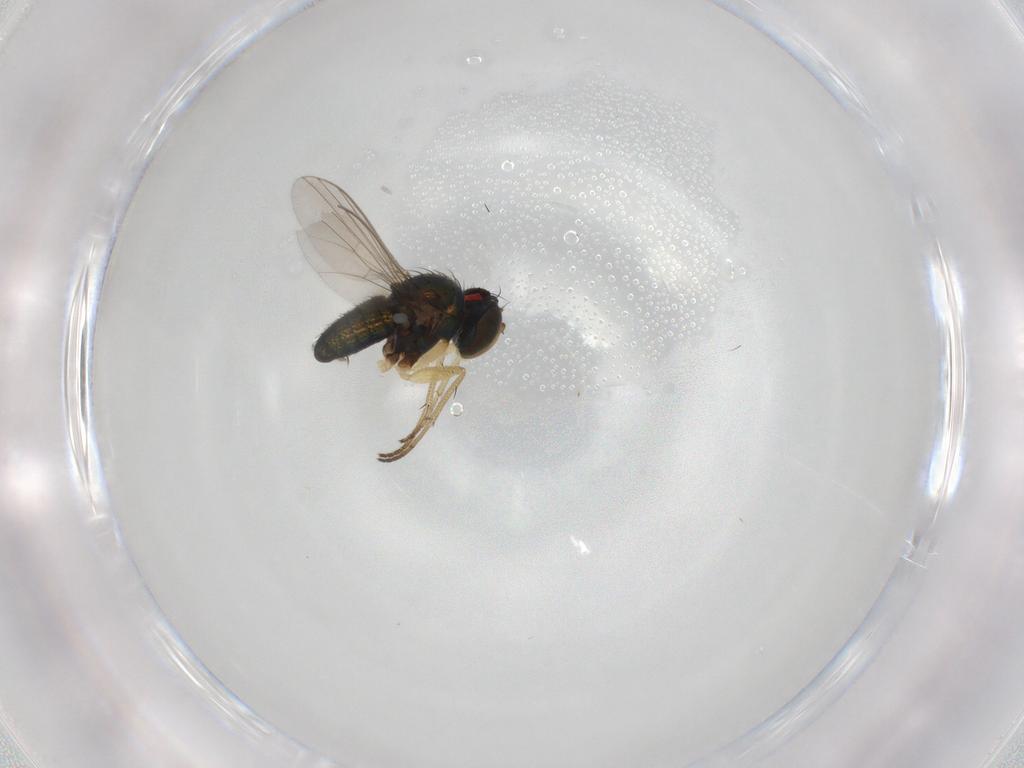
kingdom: Animalia
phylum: Arthropoda
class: Insecta
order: Diptera
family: Dolichopodidae
